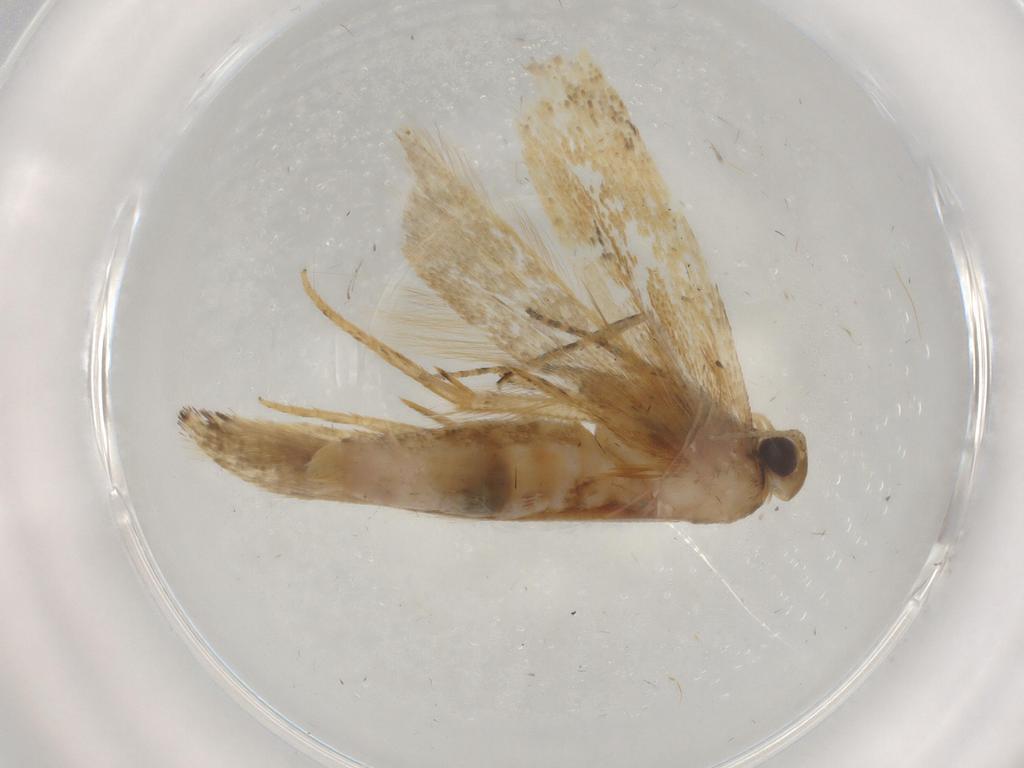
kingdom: Animalia
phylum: Arthropoda
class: Insecta
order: Lepidoptera
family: Gelechiidae
